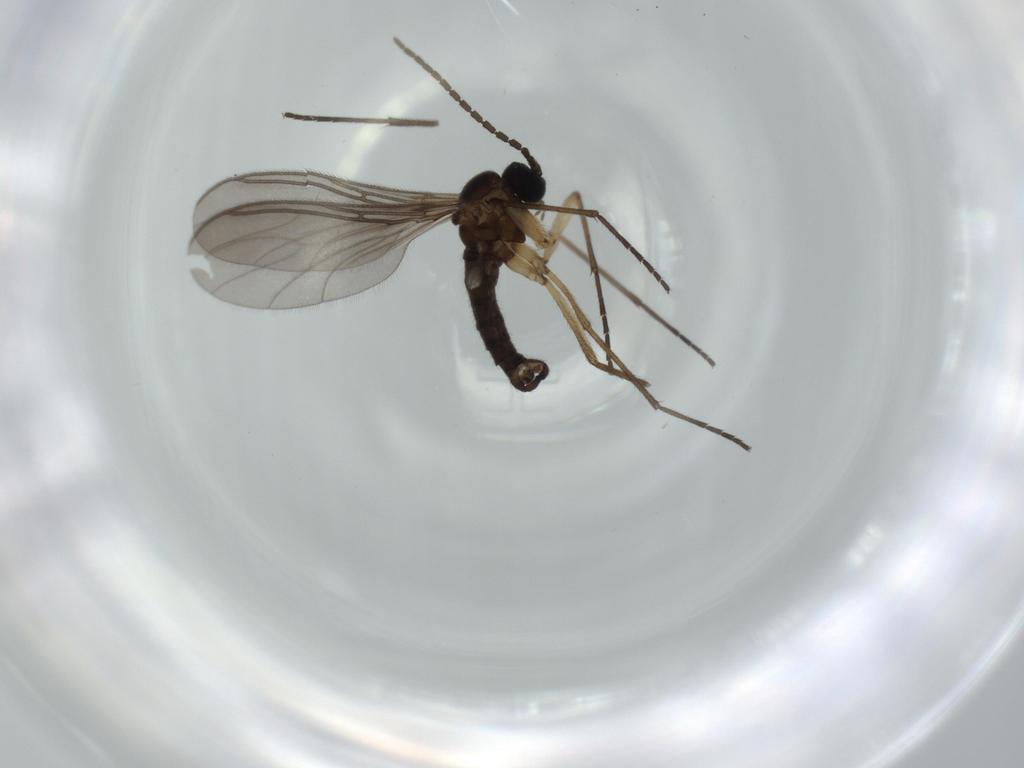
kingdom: Animalia
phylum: Arthropoda
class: Insecta
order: Diptera
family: Sciaridae
